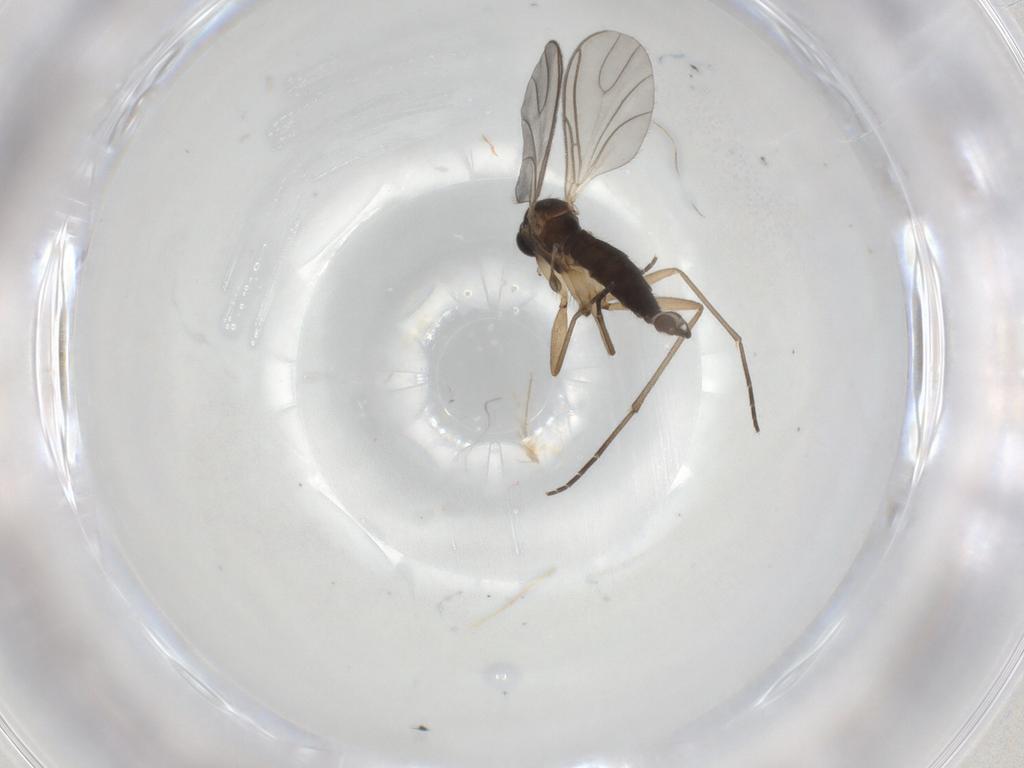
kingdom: Animalia
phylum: Arthropoda
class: Insecta
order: Diptera
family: Sciaridae
